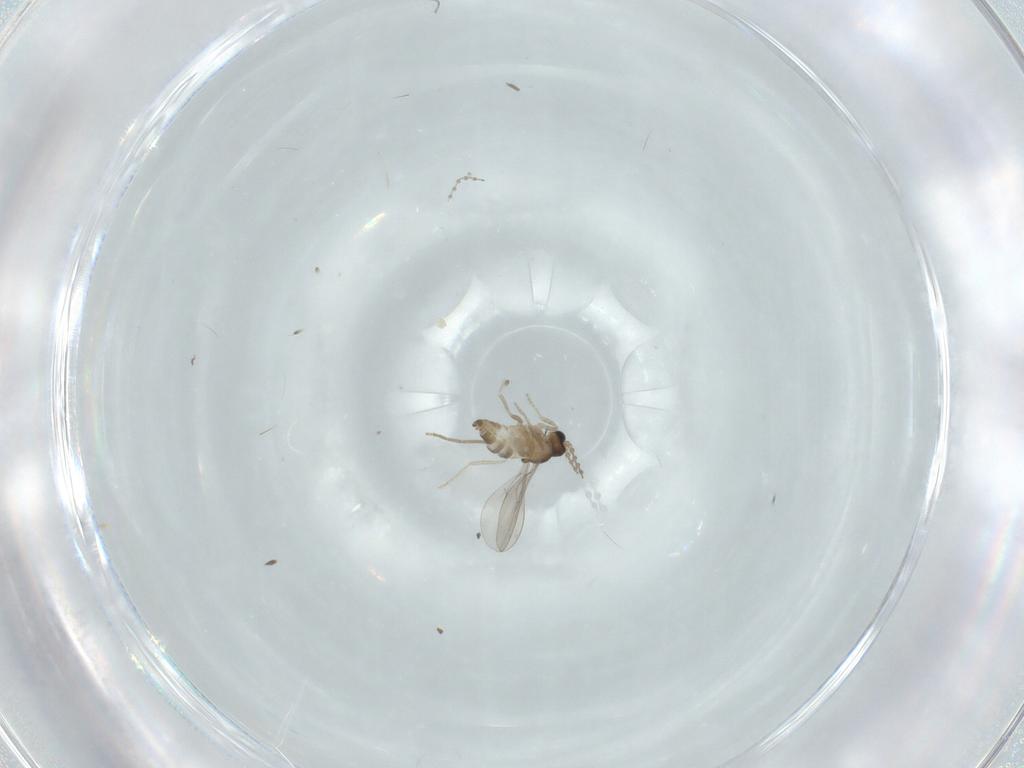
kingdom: Animalia
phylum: Arthropoda
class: Insecta
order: Diptera
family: Cecidomyiidae
